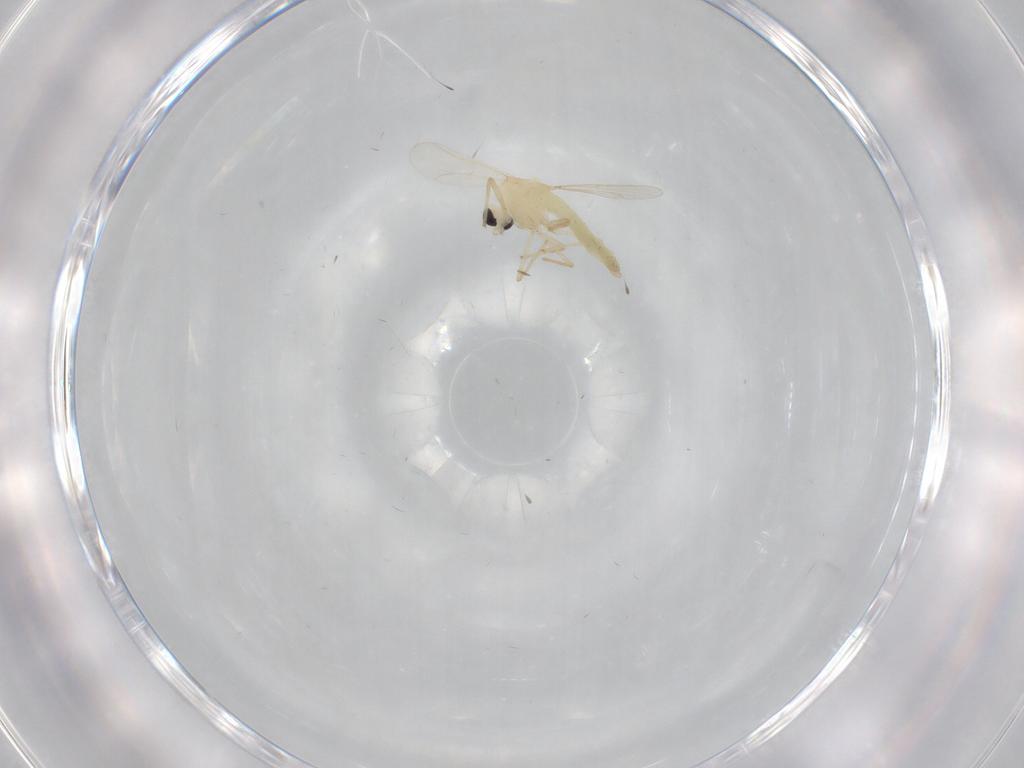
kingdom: Animalia
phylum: Arthropoda
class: Insecta
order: Diptera
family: Chironomidae
